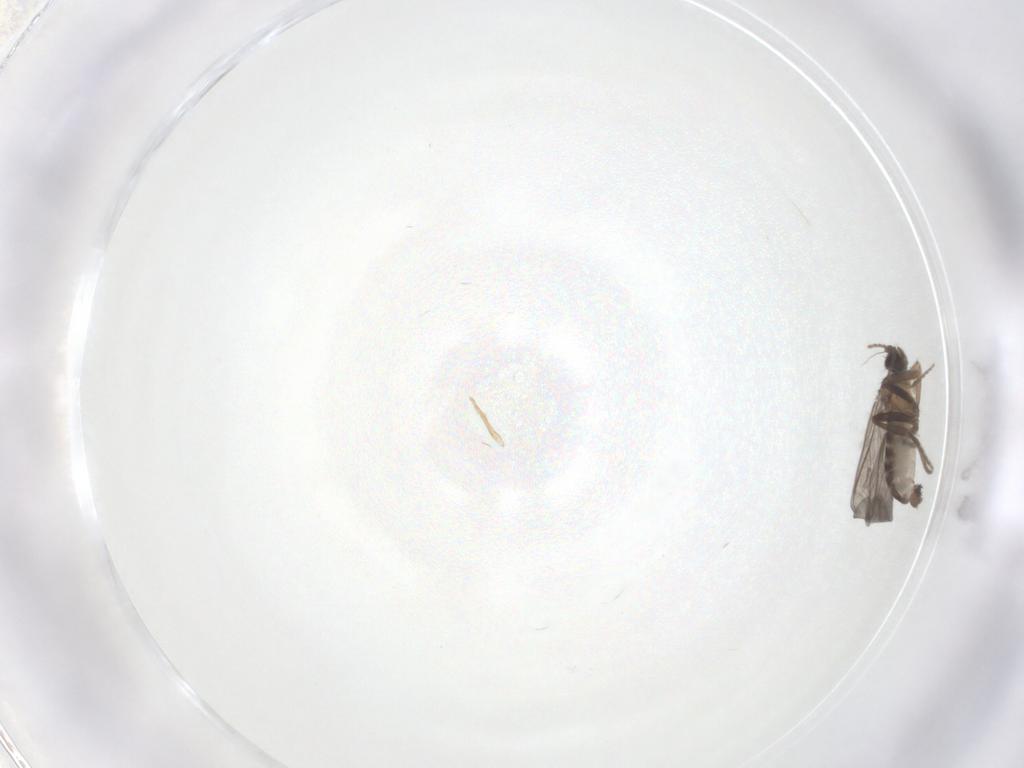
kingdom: Animalia
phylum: Arthropoda
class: Insecta
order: Diptera
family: Phoridae
